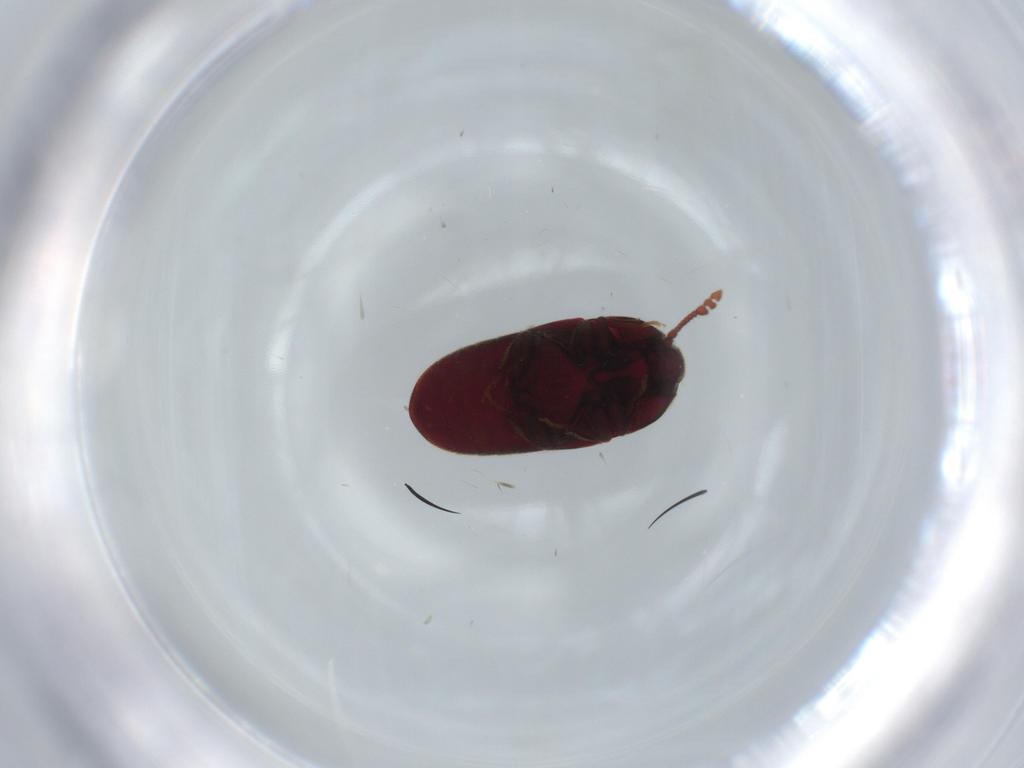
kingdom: Animalia
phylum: Arthropoda
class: Insecta
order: Coleoptera
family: Throscidae
